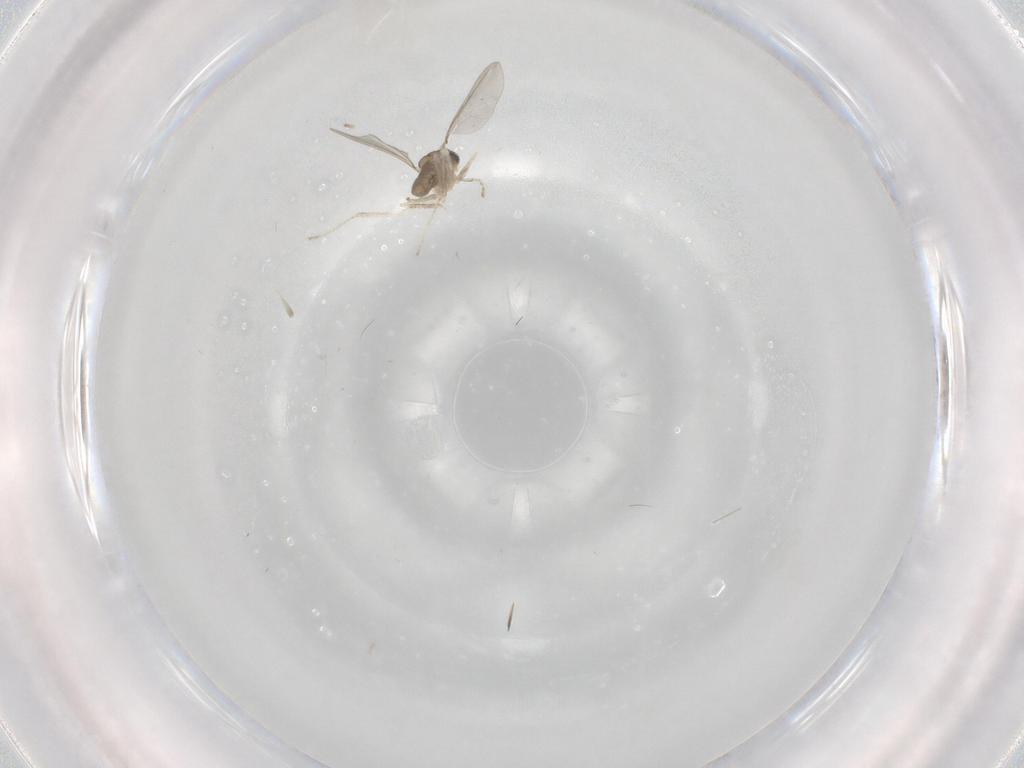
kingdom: Animalia
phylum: Arthropoda
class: Insecta
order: Diptera
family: Cecidomyiidae
